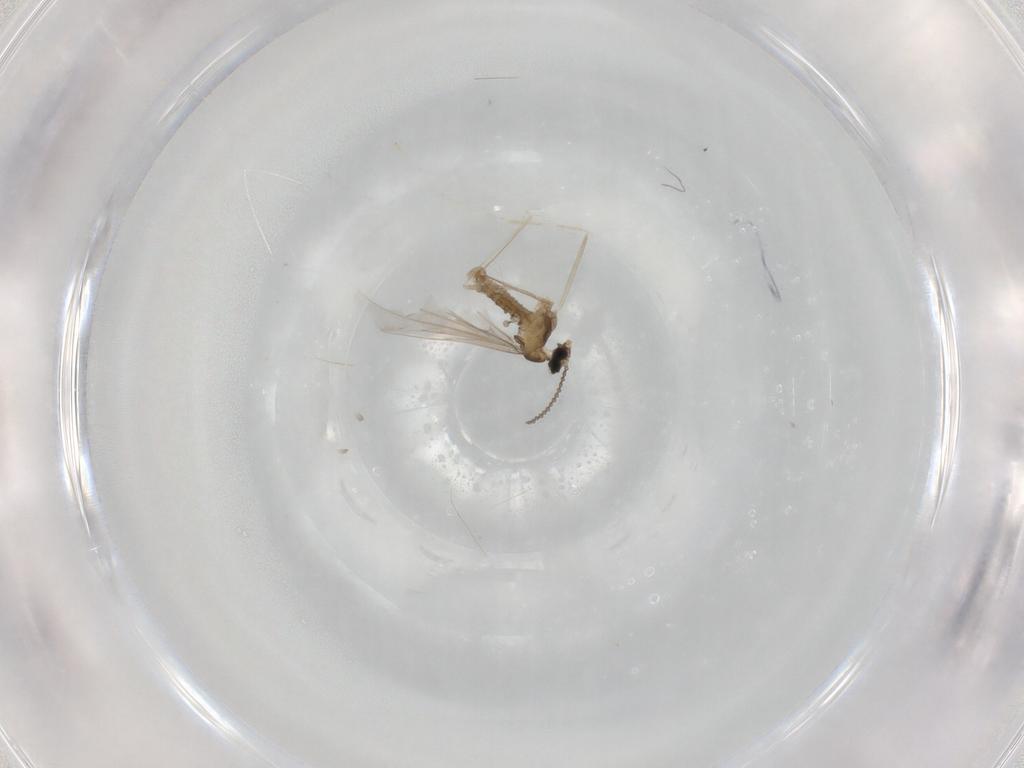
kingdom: Animalia
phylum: Arthropoda
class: Insecta
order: Diptera
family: Cecidomyiidae
